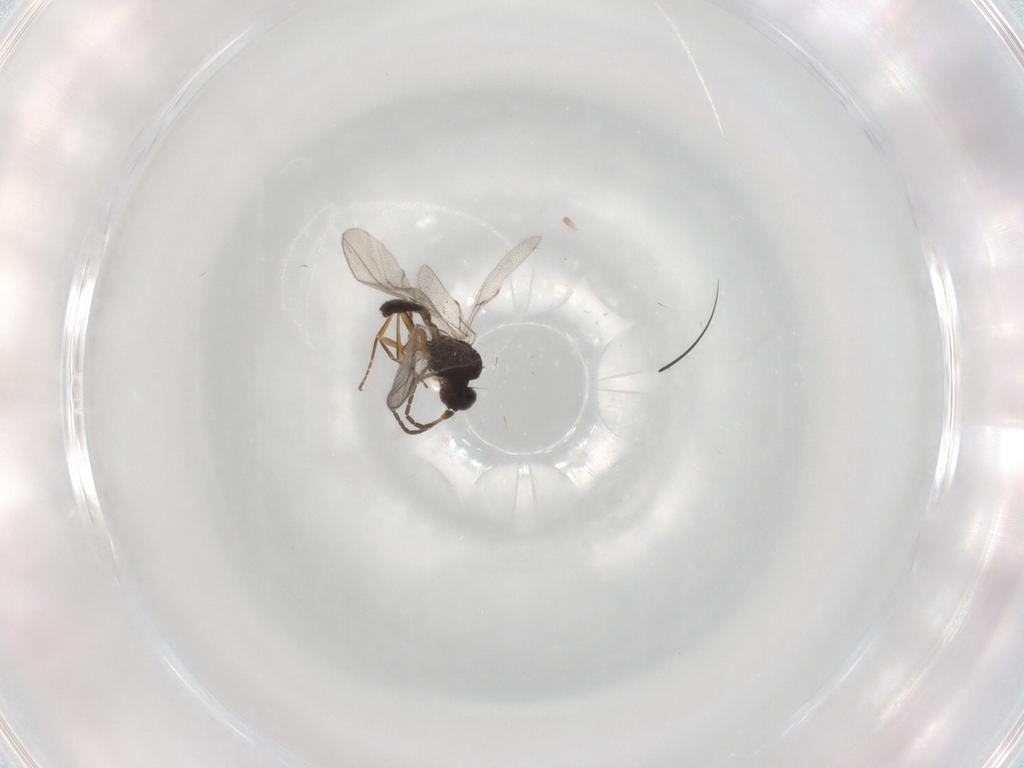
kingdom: Animalia
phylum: Arthropoda
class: Insecta
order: Hymenoptera
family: Braconidae
